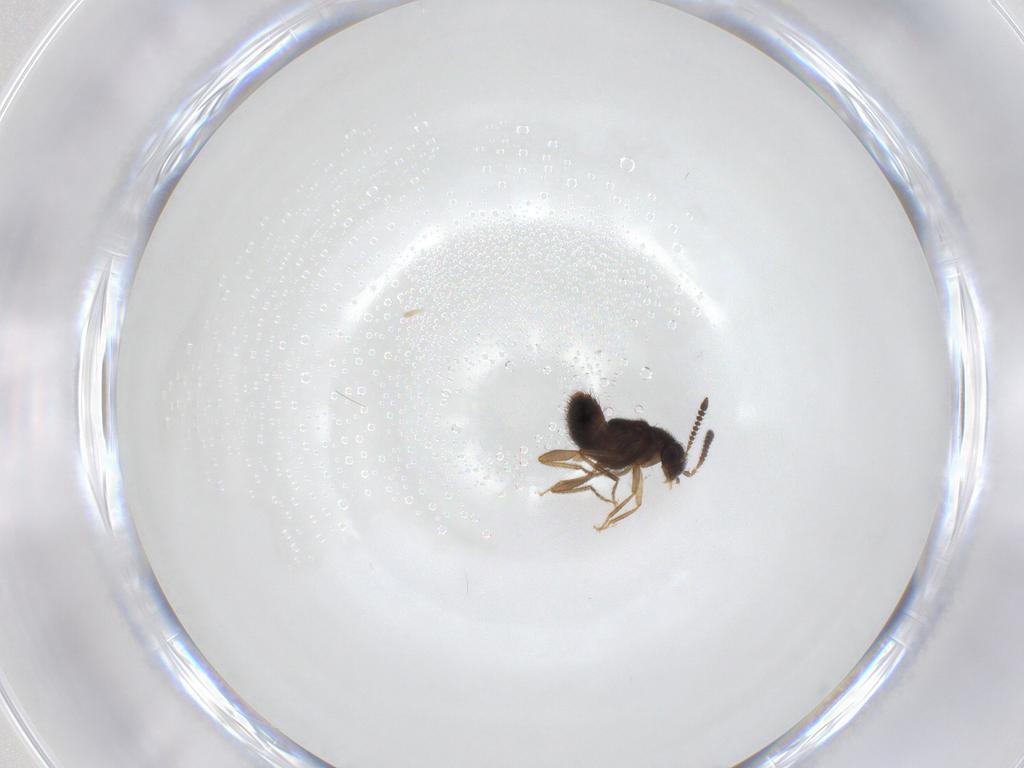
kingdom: Animalia
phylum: Arthropoda
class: Insecta
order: Coleoptera
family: Staphylinidae
